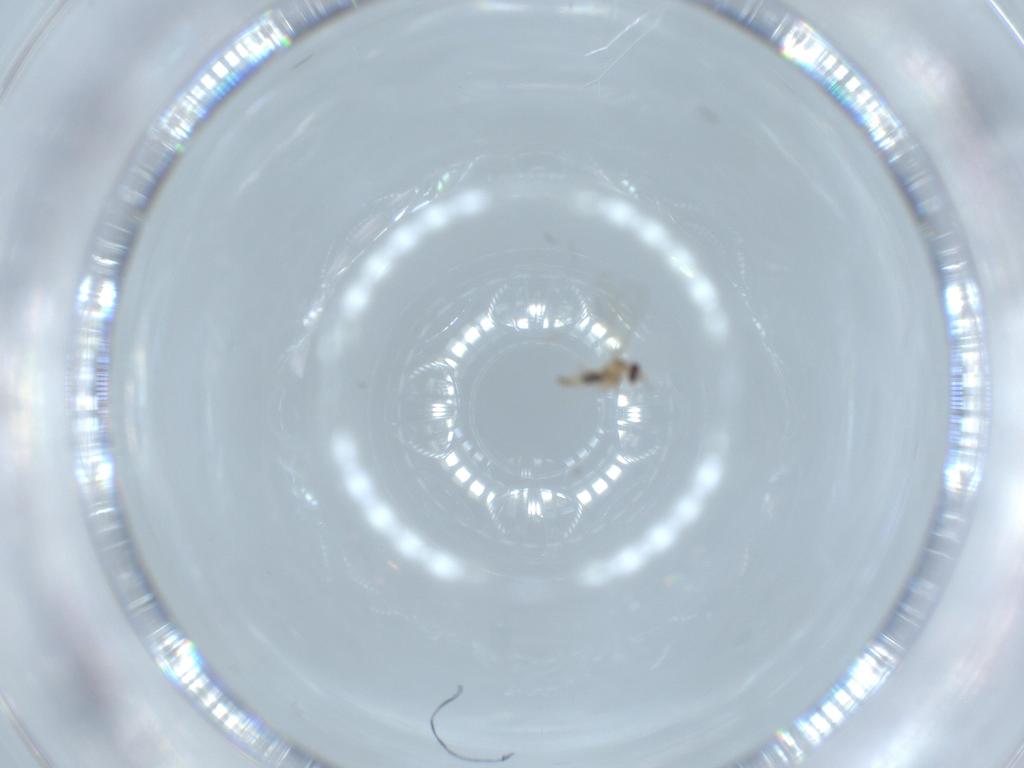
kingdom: Animalia
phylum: Arthropoda
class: Insecta
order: Diptera
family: Cecidomyiidae
